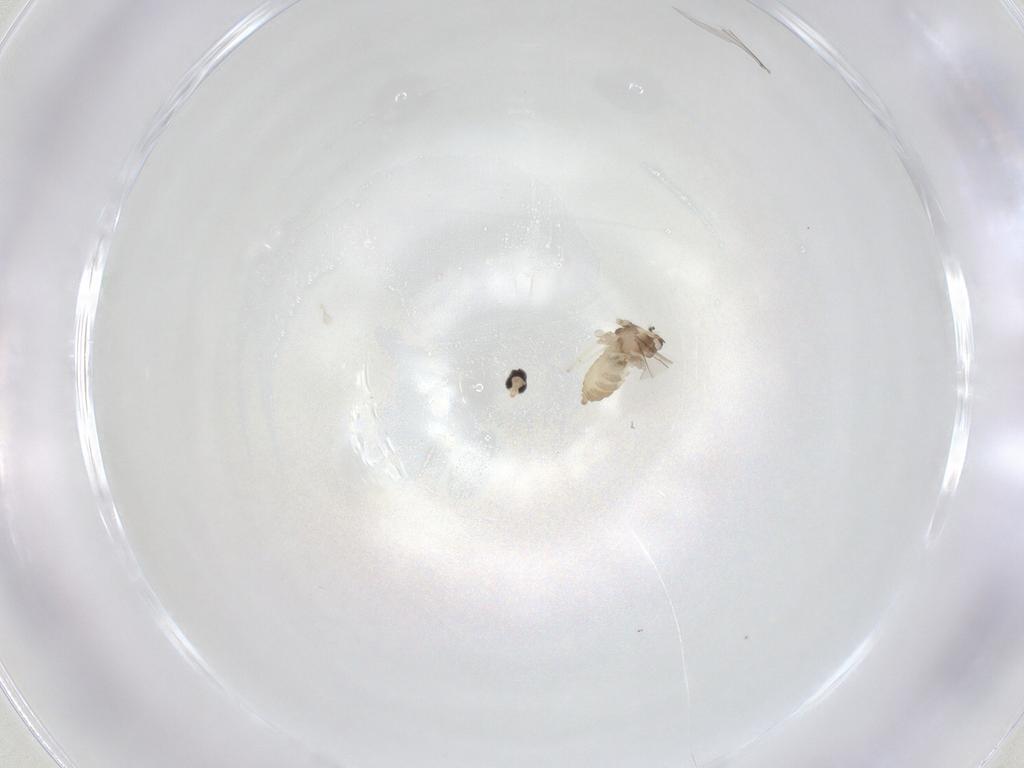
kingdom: Animalia
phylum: Arthropoda
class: Insecta
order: Diptera
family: Cecidomyiidae
